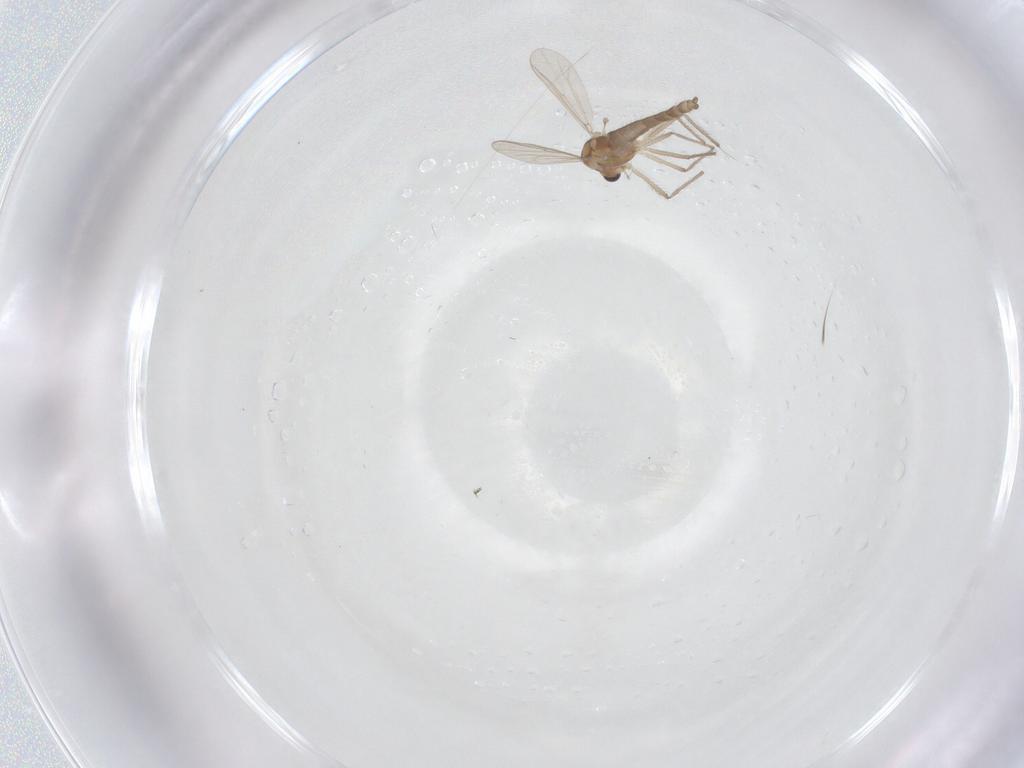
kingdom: Animalia
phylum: Arthropoda
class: Insecta
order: Diptera
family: Chironomidae
